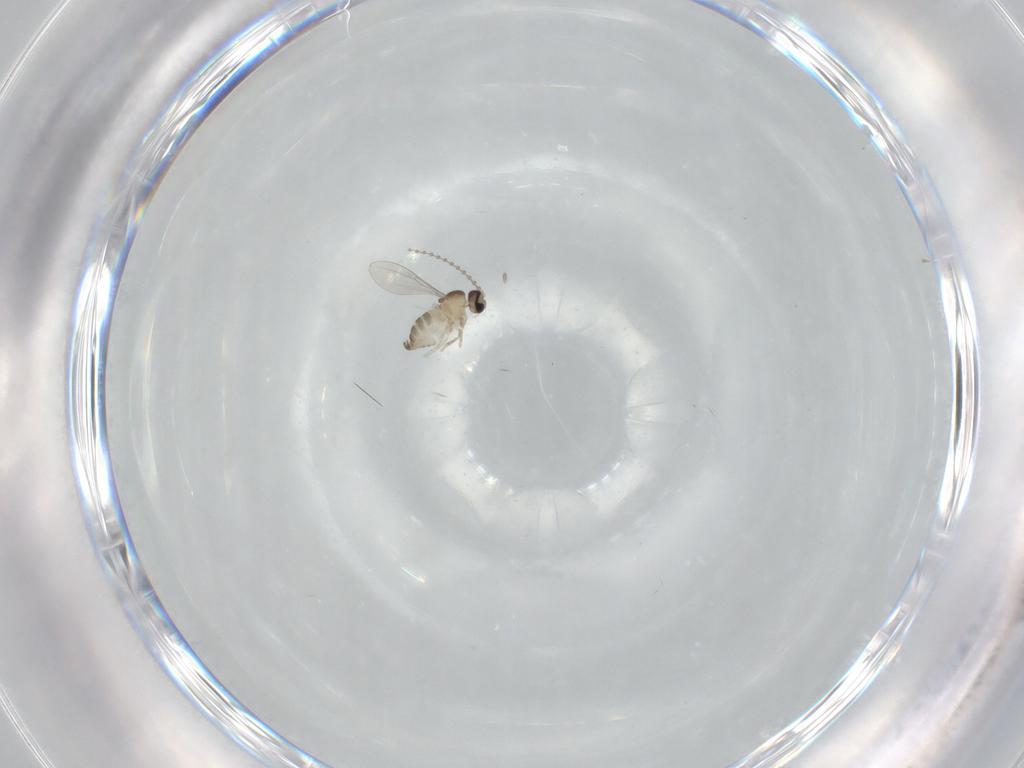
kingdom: Animalia
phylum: Arthropoda
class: Insecta
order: Diptera
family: Cecidomyiidae
